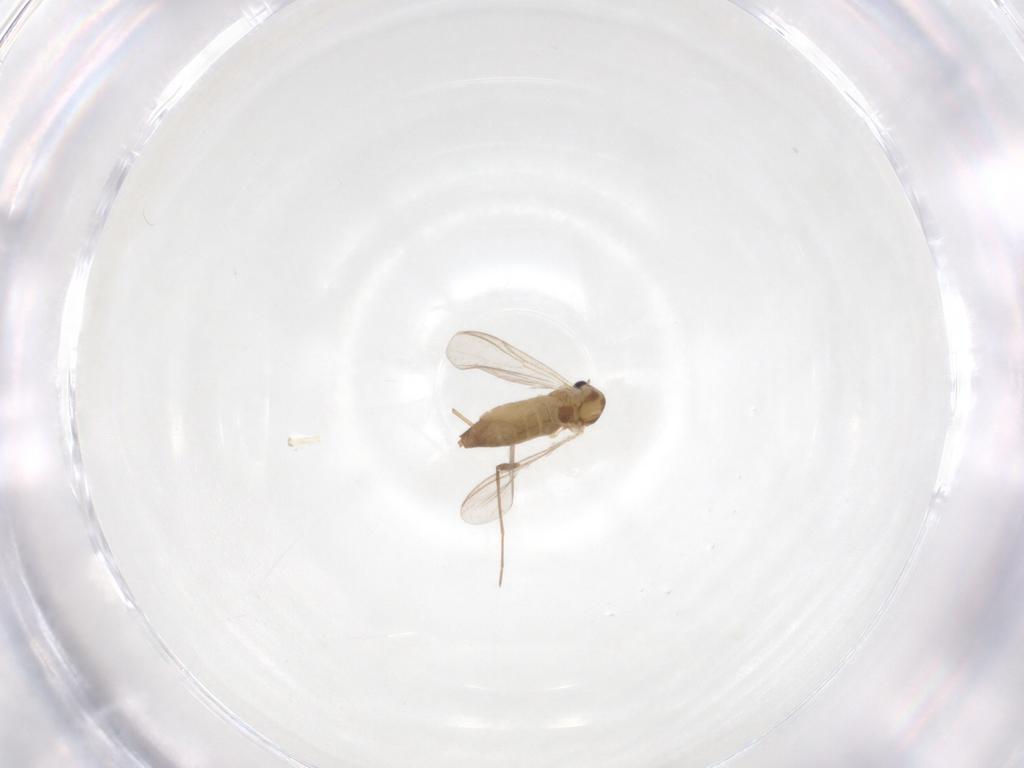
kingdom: Animalia
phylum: Arthropoda
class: Insecta
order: Diptera
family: Chironomidae
